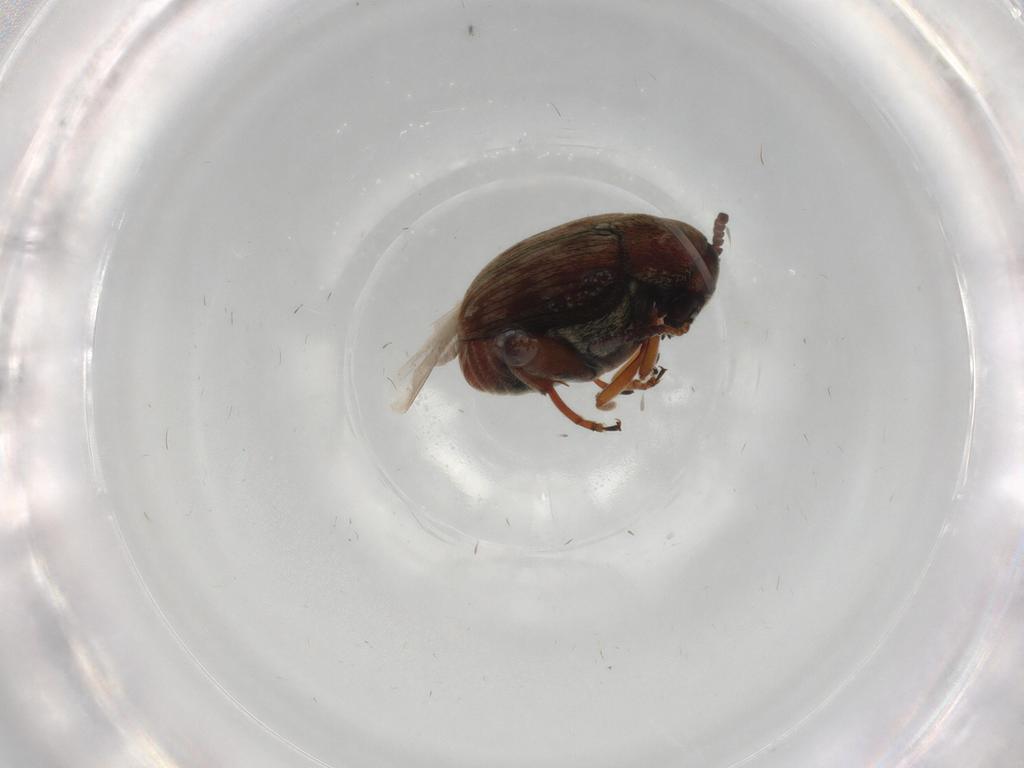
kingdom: Animalia
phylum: Arthropoda
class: Insecta
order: Coleoptera
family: Chrysomelidae
